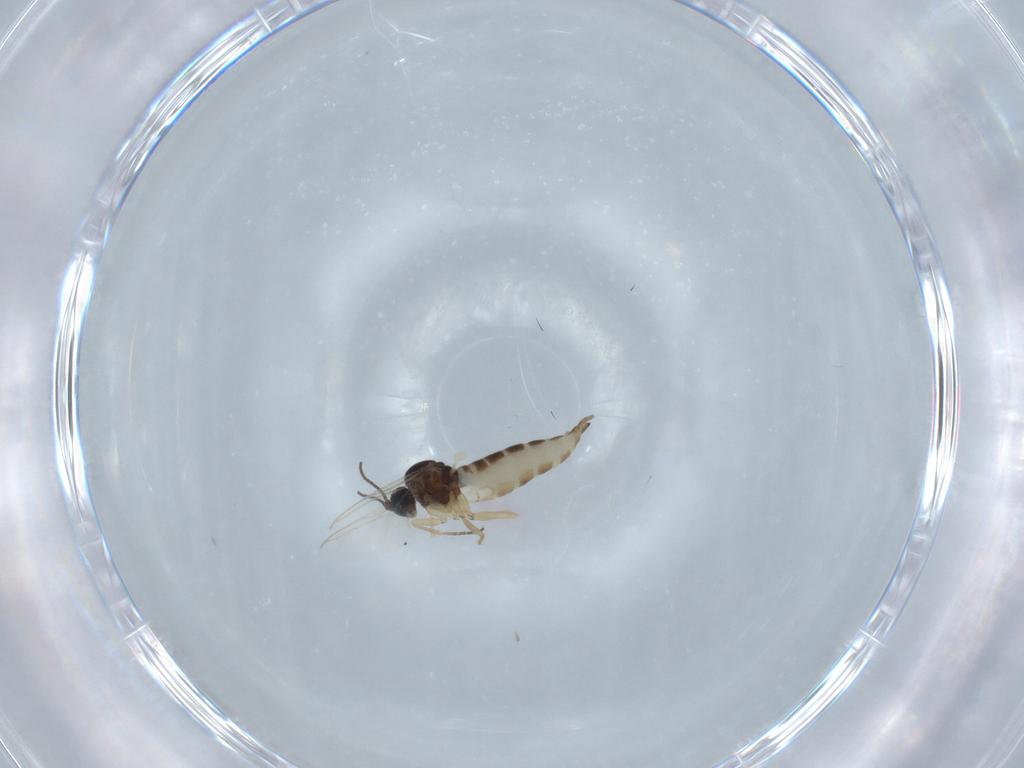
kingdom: Animalia
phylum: Arthropoda
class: Insecta
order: Diptera
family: Sciaridae
